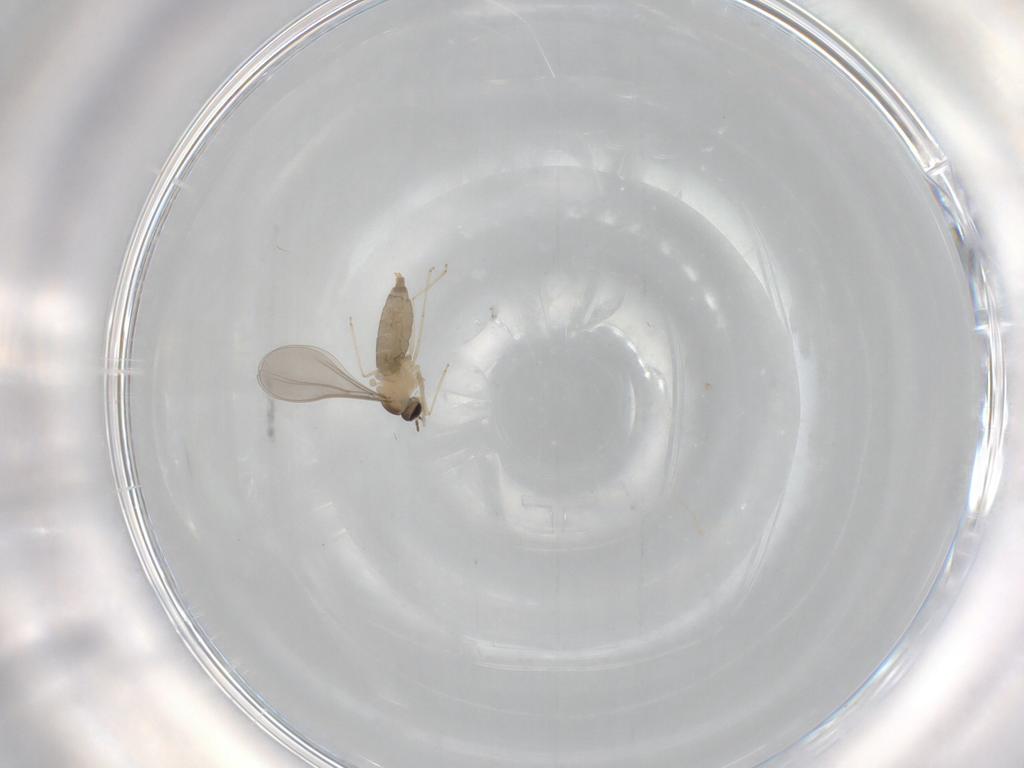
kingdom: Animalia
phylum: Arthropoda
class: Insecta
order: Diptera
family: Cecidomyiidae
